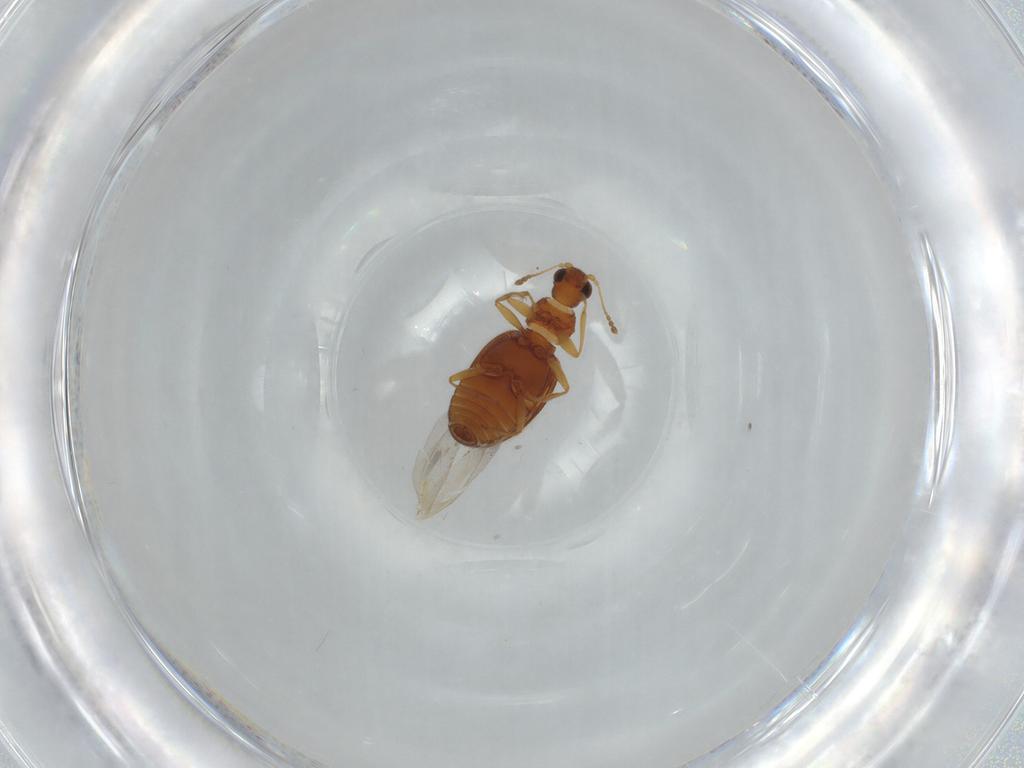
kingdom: Animalia
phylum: Arthropoda
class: Insecta
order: Coleoptera
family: Latridiidae
